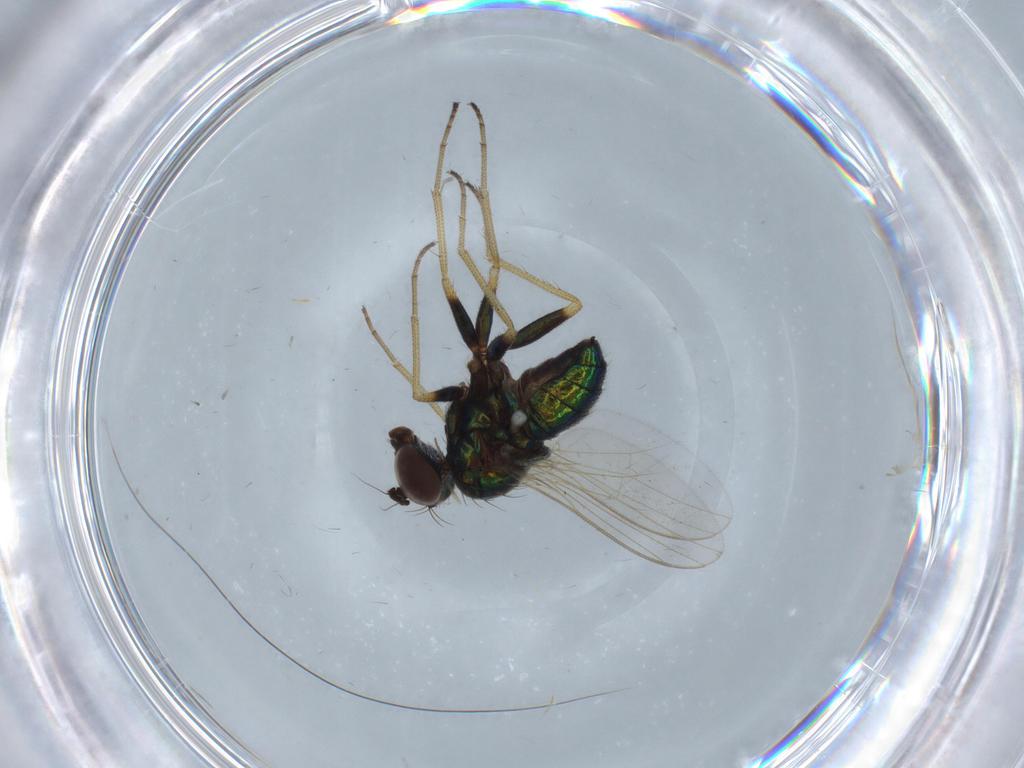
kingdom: Animalia
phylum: Arthropoda
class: Insecta
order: Diptera
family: Dolichopodidae
